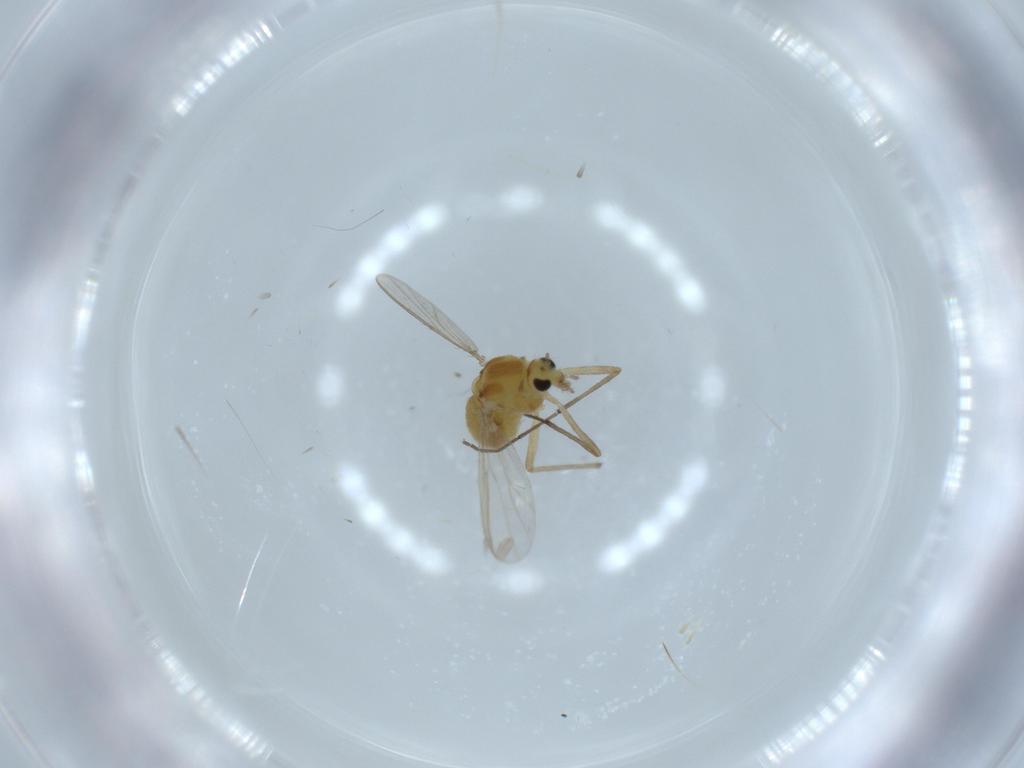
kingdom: Animalia
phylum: Arthropoda
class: Insecta
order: Diptera
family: Chironomidae
